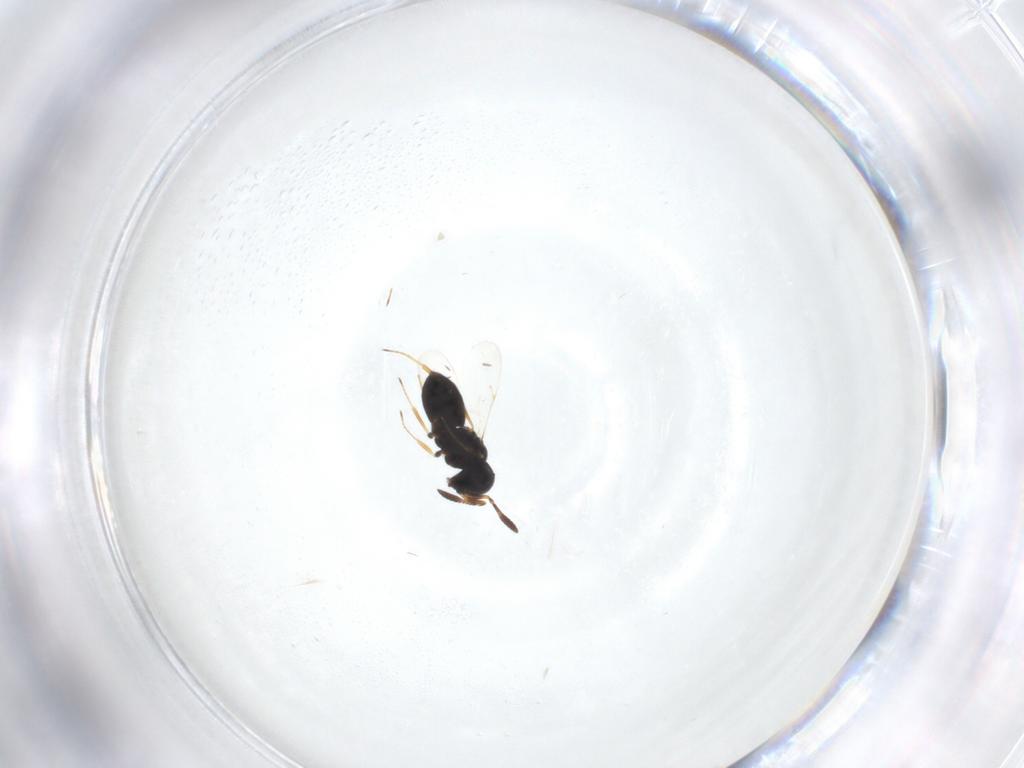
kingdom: Animalia
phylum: Arthropoda
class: Insecta
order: Hymenoptera
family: Scelionidae
